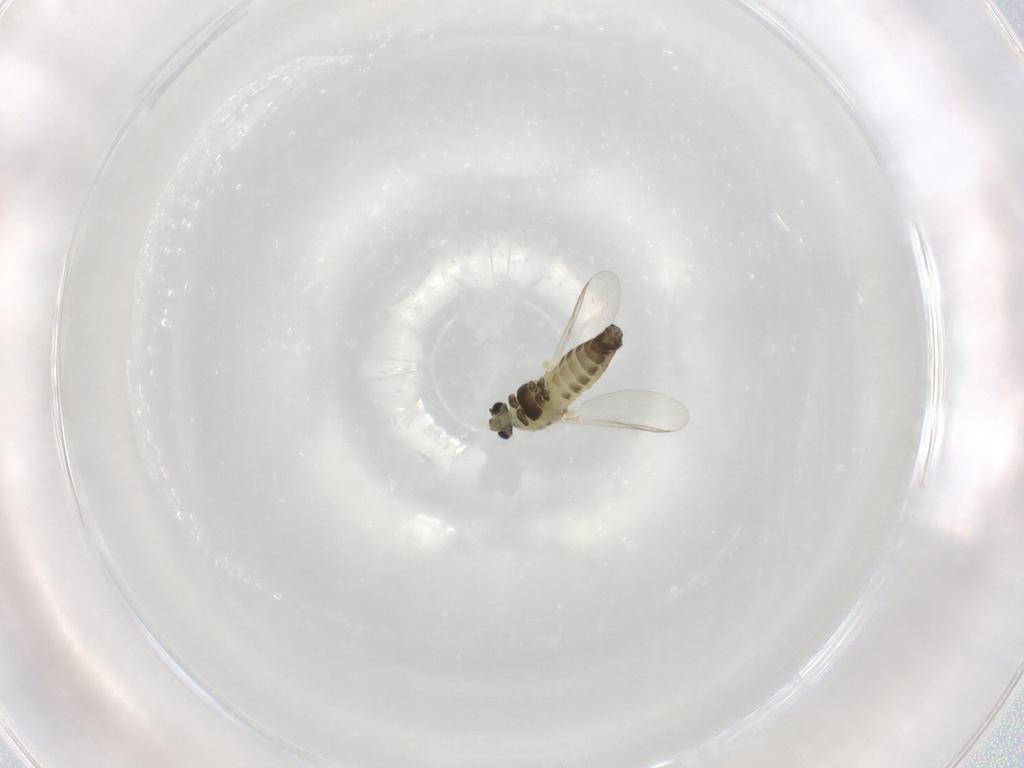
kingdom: Animalia
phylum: Arthropoda
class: Insecta
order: Diptera
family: Chironomidae
